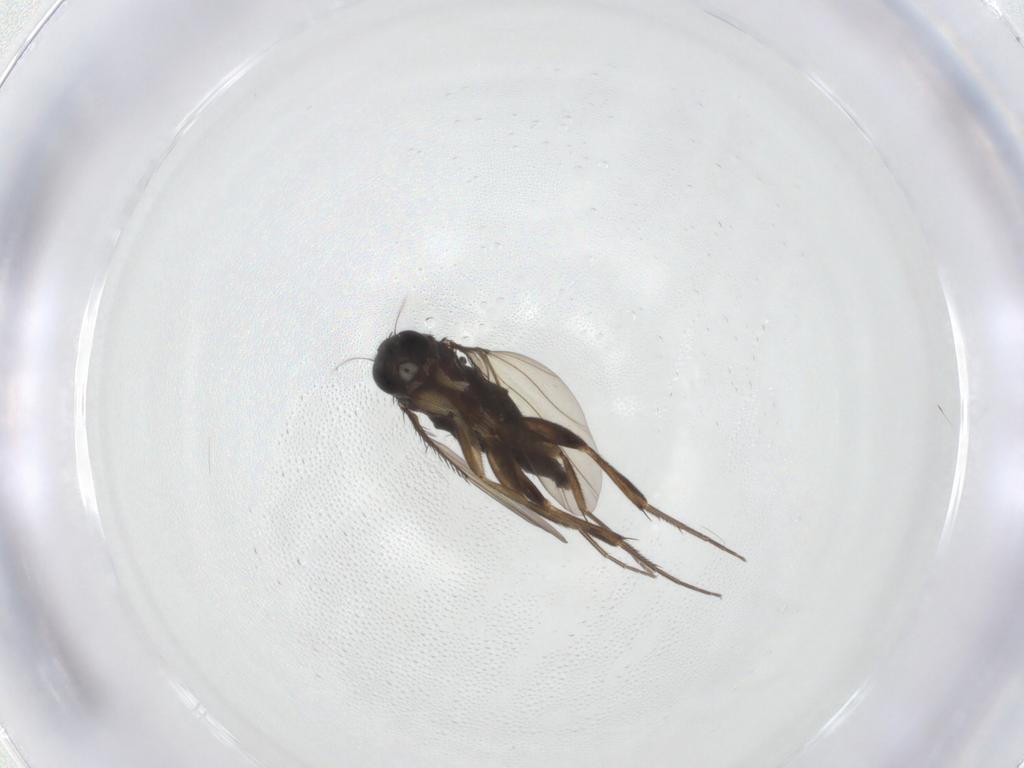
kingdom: Animalia
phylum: Arthropoda
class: Insecta
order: Diptera
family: Phoridae
